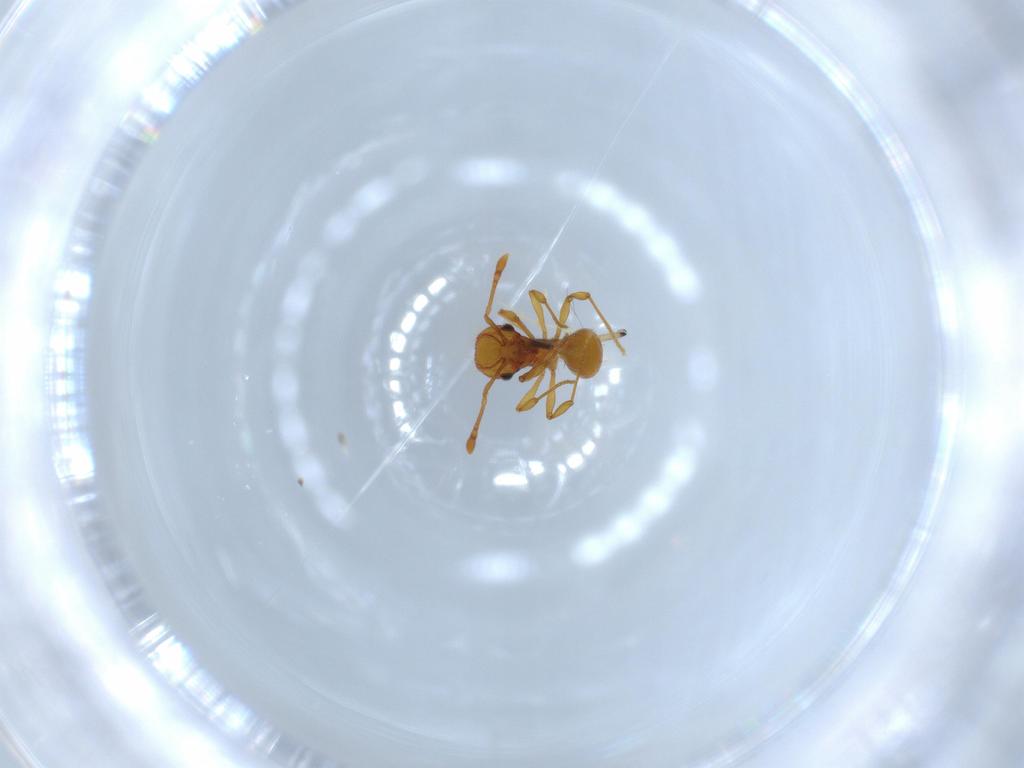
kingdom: Animalia
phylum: Arthropoda
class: Insecta
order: Hymenoptera
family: Formicidae
